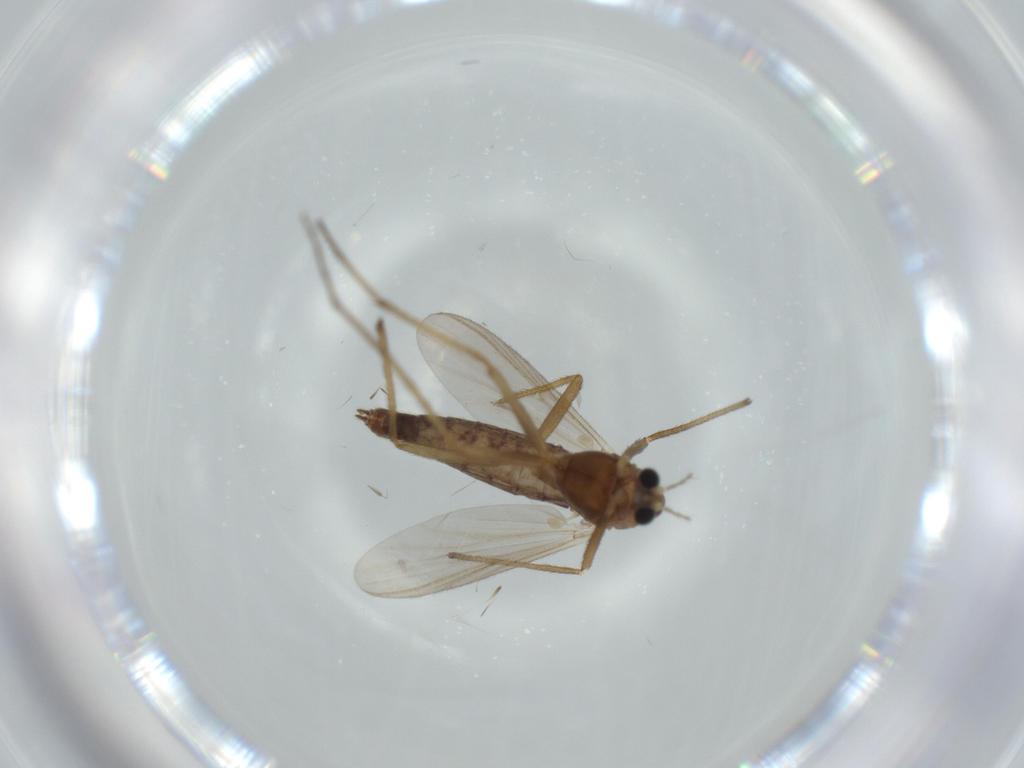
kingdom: Animalia
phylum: Arthropoda
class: Insecta
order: Diptera
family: Chironomidae
